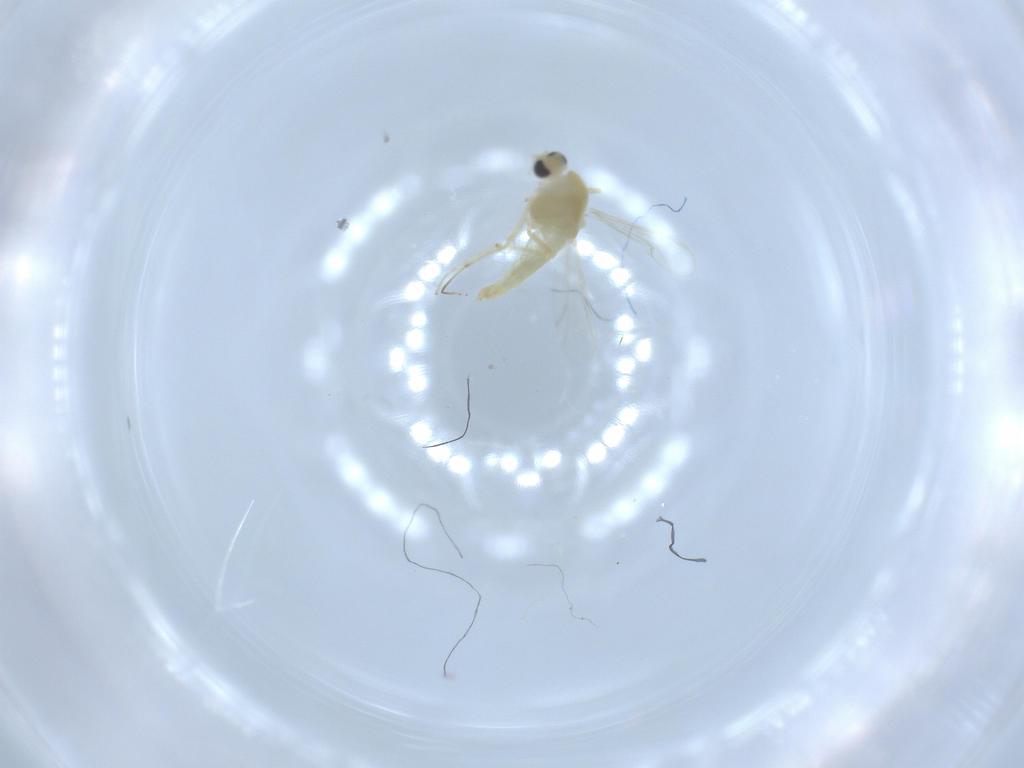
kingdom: Animalia
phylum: Arthropoda
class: Insecta
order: Diptera
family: Chironomidae
